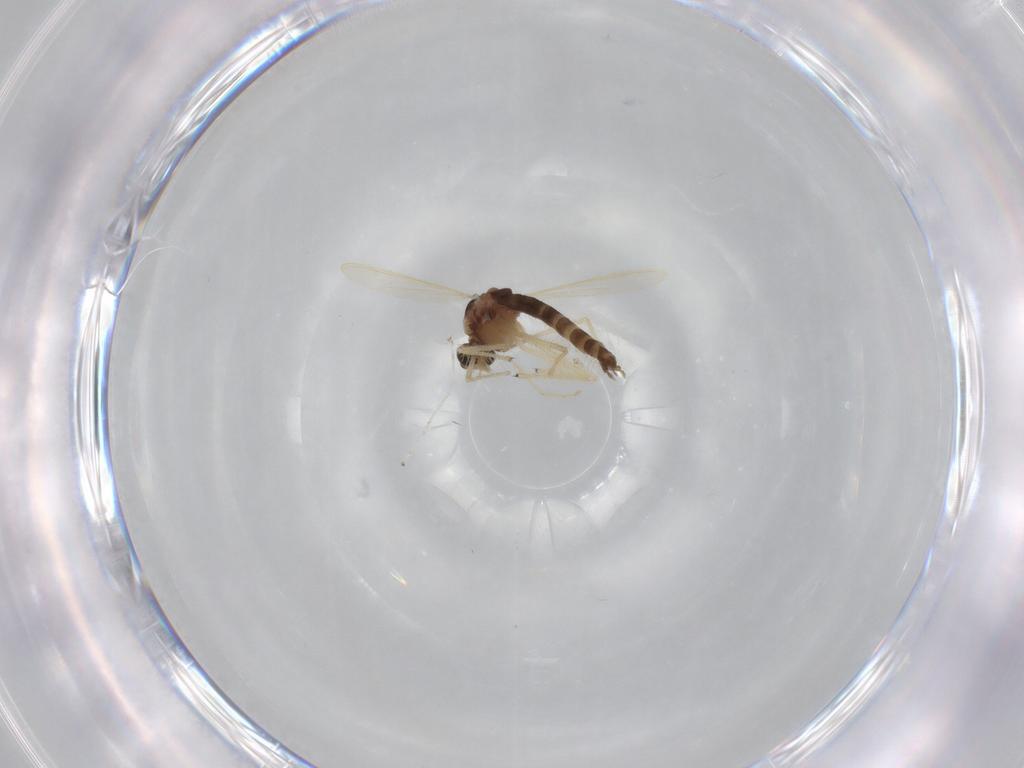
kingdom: Animalia
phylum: Arthropoda
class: Insecta
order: Diptera
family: Chironomidae
